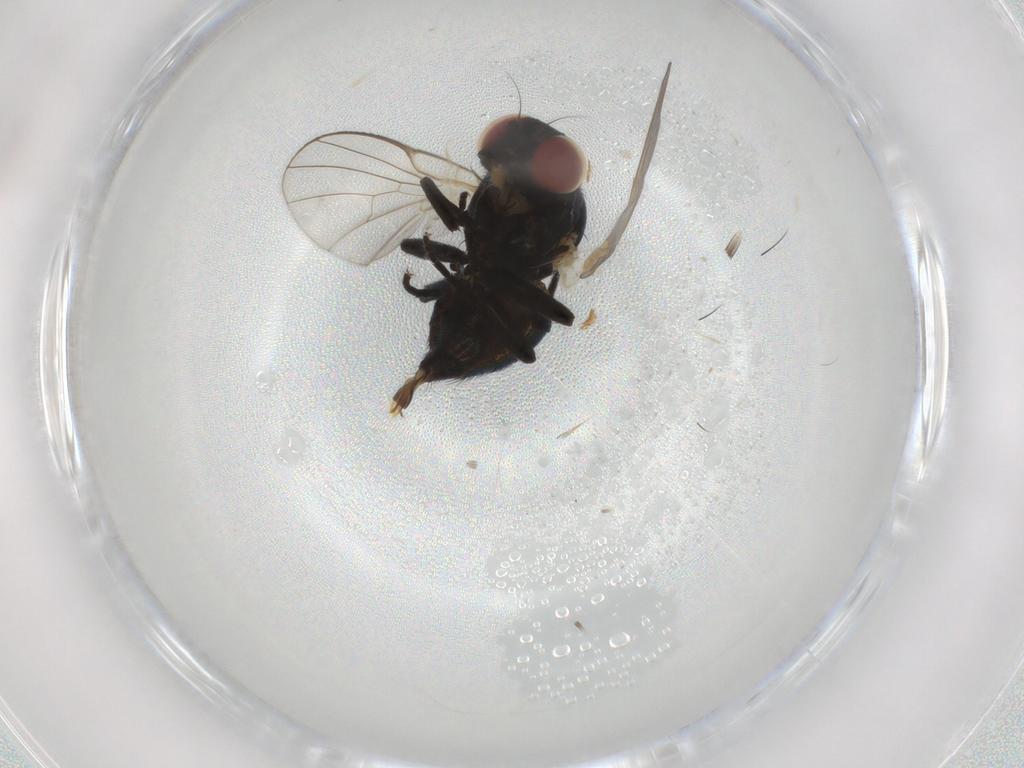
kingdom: Animalia
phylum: Arthropoda
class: Insecta
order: Diptera
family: Agromyzidae
